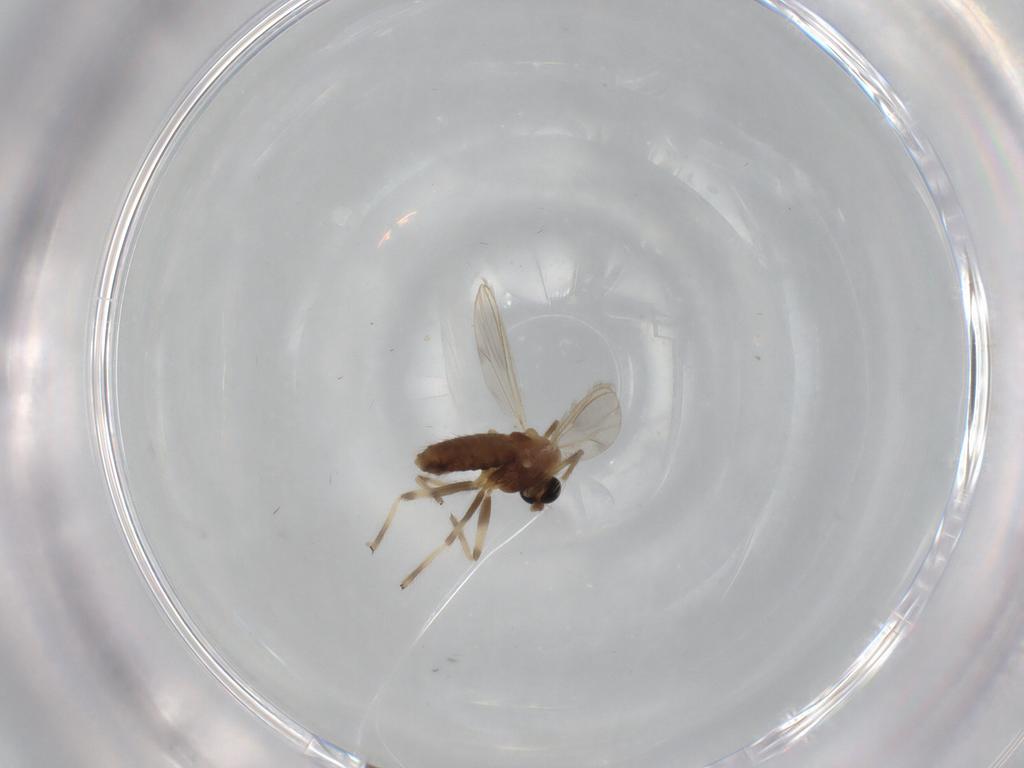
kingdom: Animalia
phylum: Arthropoda
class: Insecta
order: Diptera
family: Chironomidae
